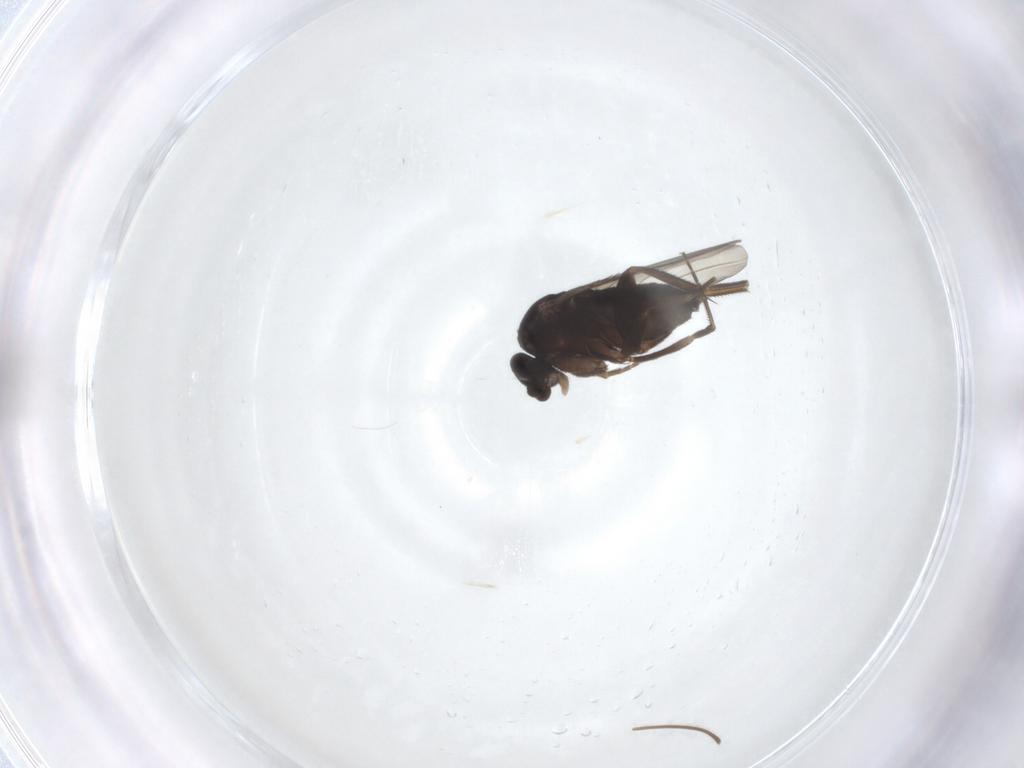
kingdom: Animalia
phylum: Arthropoda
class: Insecta
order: Diptera
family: Phoridae
